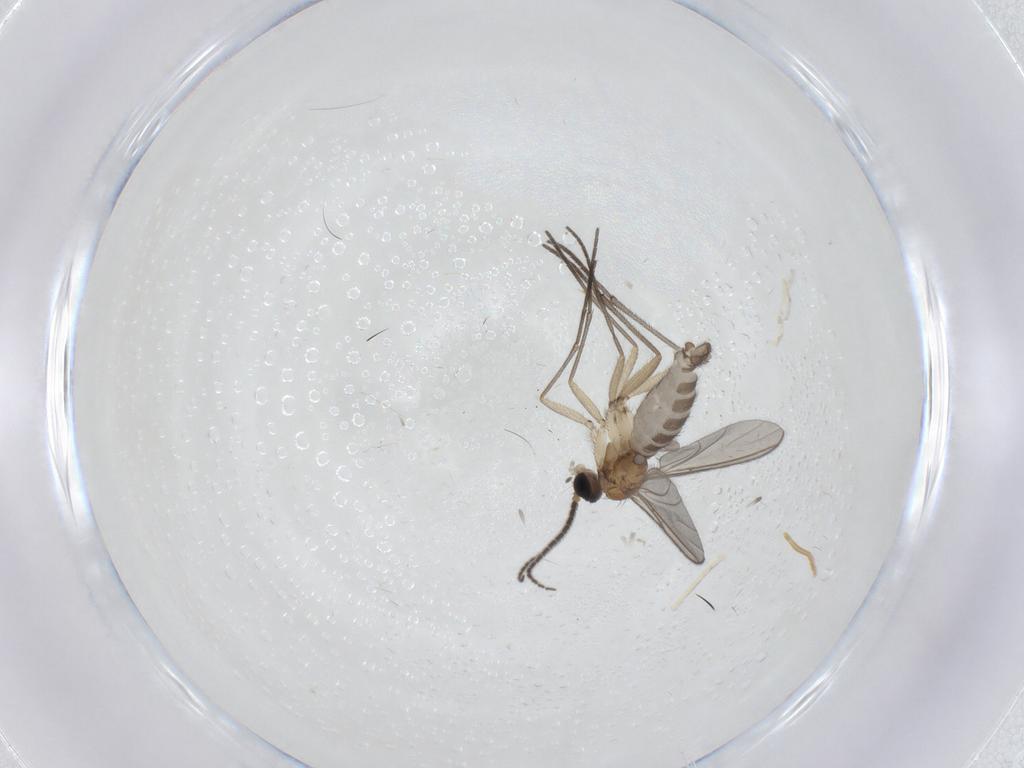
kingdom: Animalia
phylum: Arthropoda
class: Insecta
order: Diptera
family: Sciaridae
